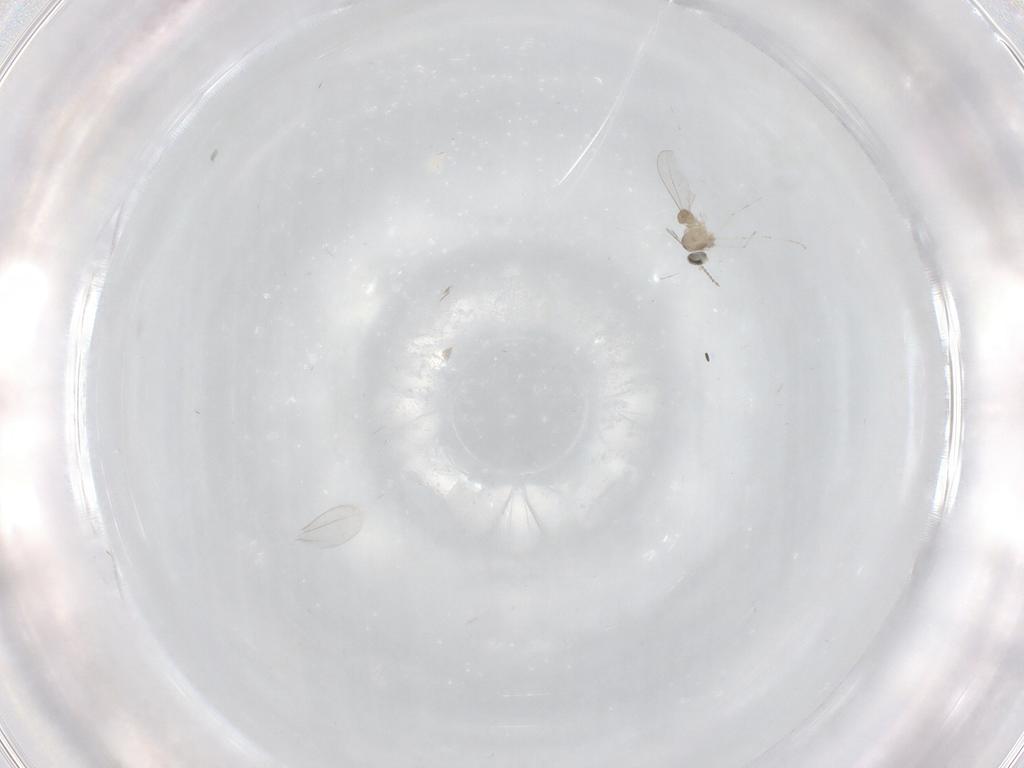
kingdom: Animalia
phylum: Arthropoda
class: Insecta
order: Diptera
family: Cecidomyiidae
